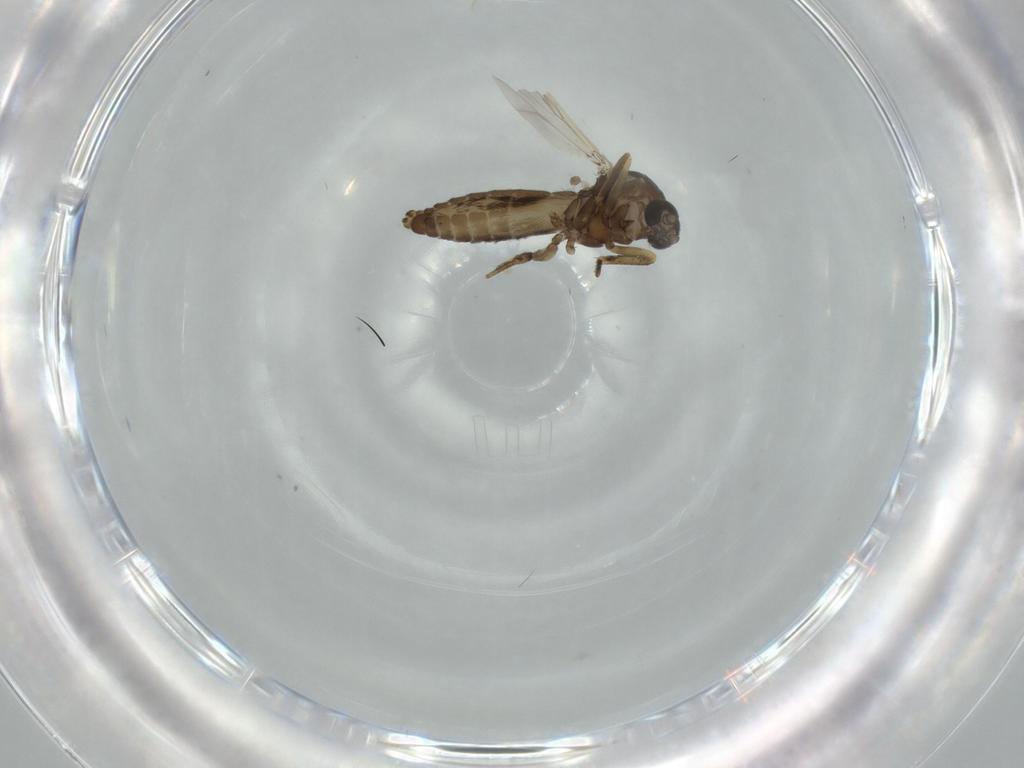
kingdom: Animalia
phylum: Arthropoda
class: Insecta
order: Diptera
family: Ceratopogonidae
